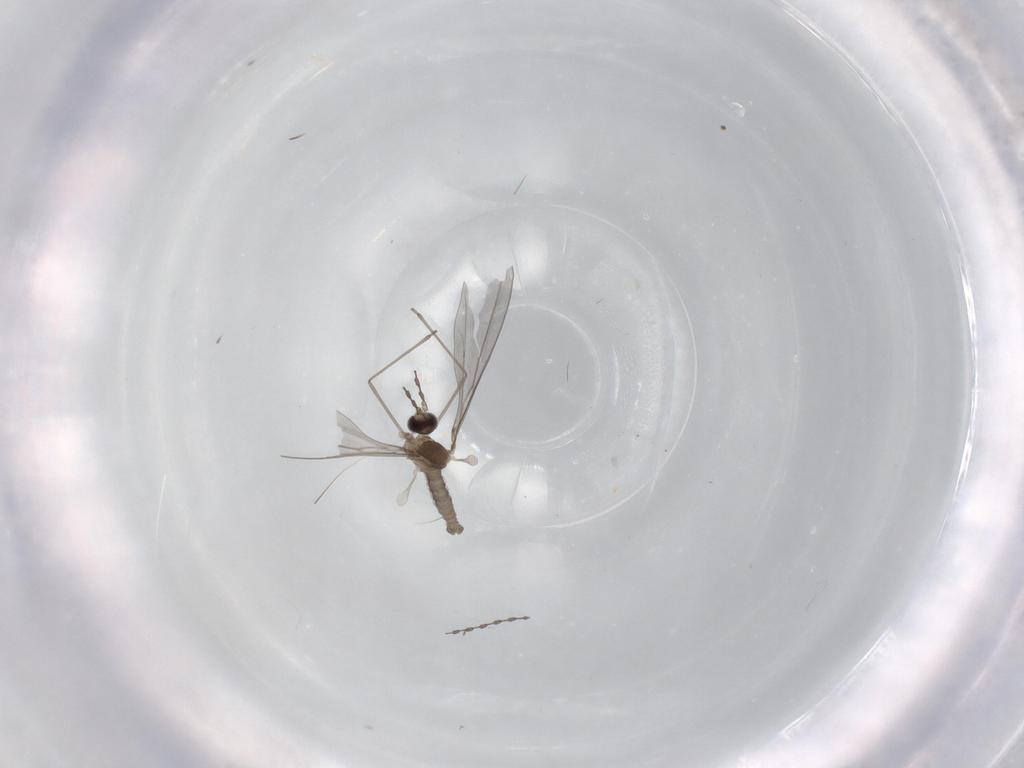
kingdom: Animalia
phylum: Arthropoda
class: Insecta
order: Diptera
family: Cecidomyiidae
